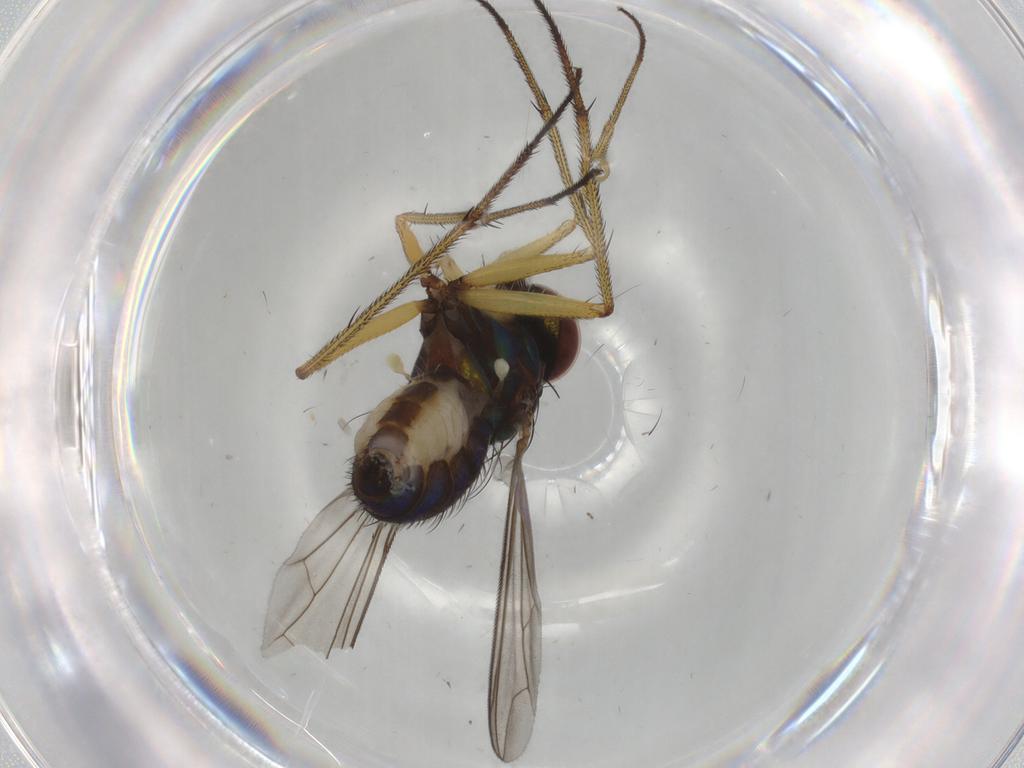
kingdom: Animalia
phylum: Arthropoda
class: Insecta
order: Diptera
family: Dolichopodidae
